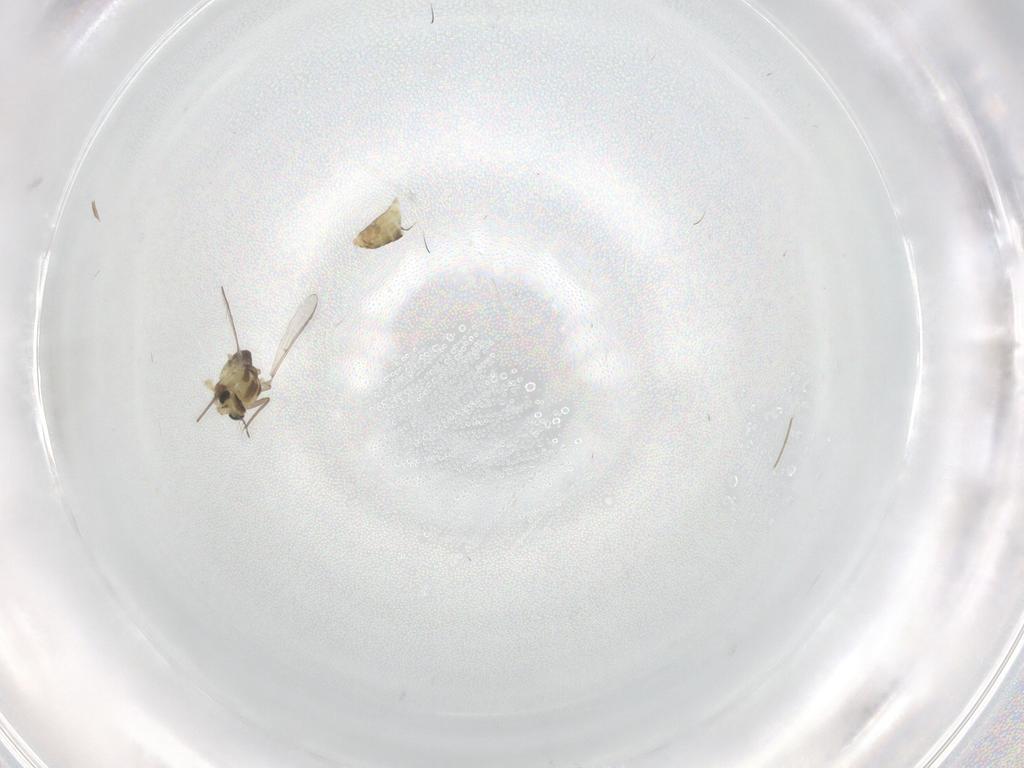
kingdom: Animalia
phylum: Arthropoda
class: Insecta
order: Diptera
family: Chironomidae
